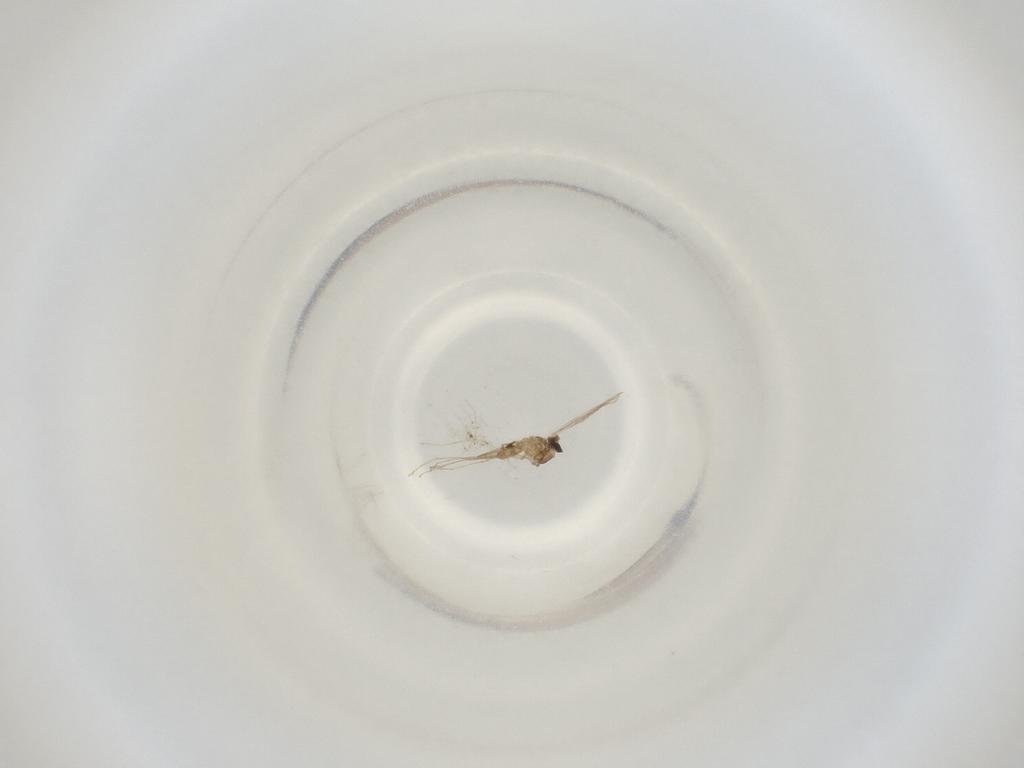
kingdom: Animalia
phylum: Arthropoda
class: Insecta
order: Diptera
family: Cecidomyiidae
